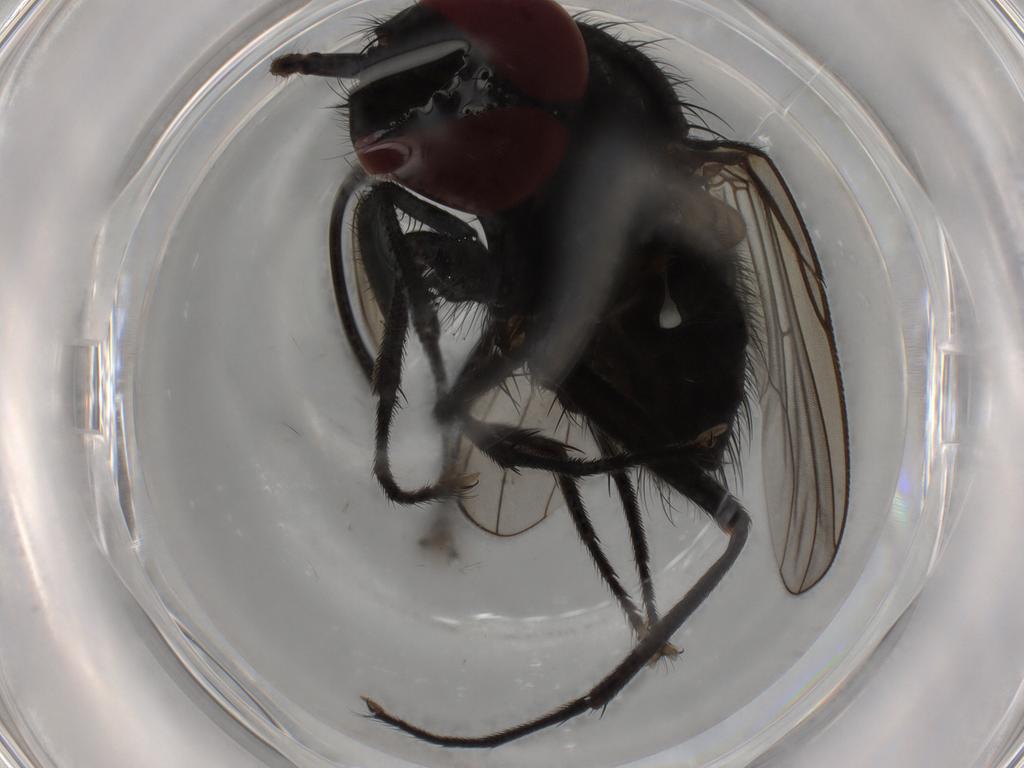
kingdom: Animalia
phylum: Arthropoda
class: Insecta
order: Diptera
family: Muscidae
